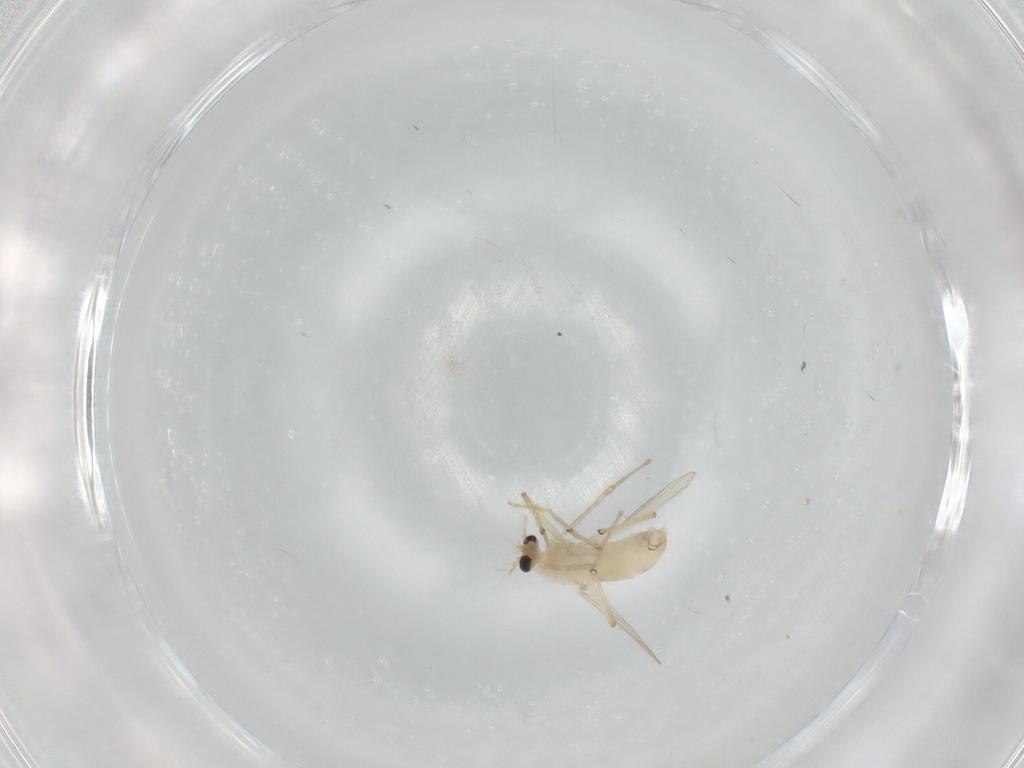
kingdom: Animalia
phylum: Arthropoda
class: Insecta
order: Diptera
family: Chironomidae
